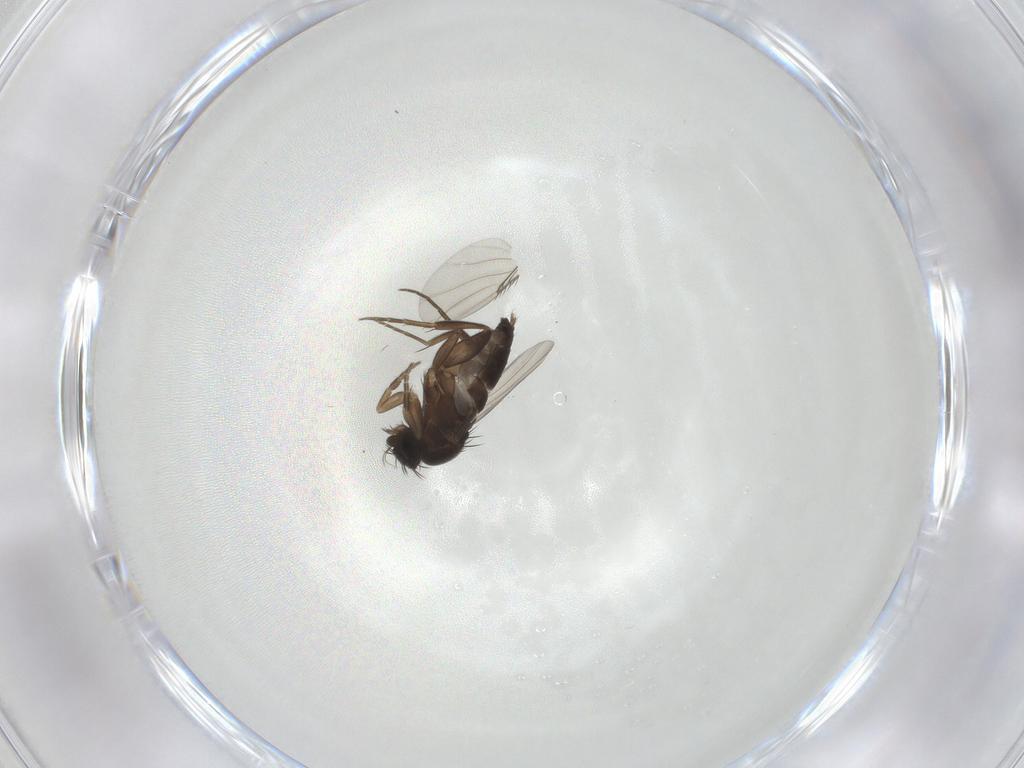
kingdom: Animalia
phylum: Arthropoda
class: Insecta
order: Diptera
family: Phoridae
